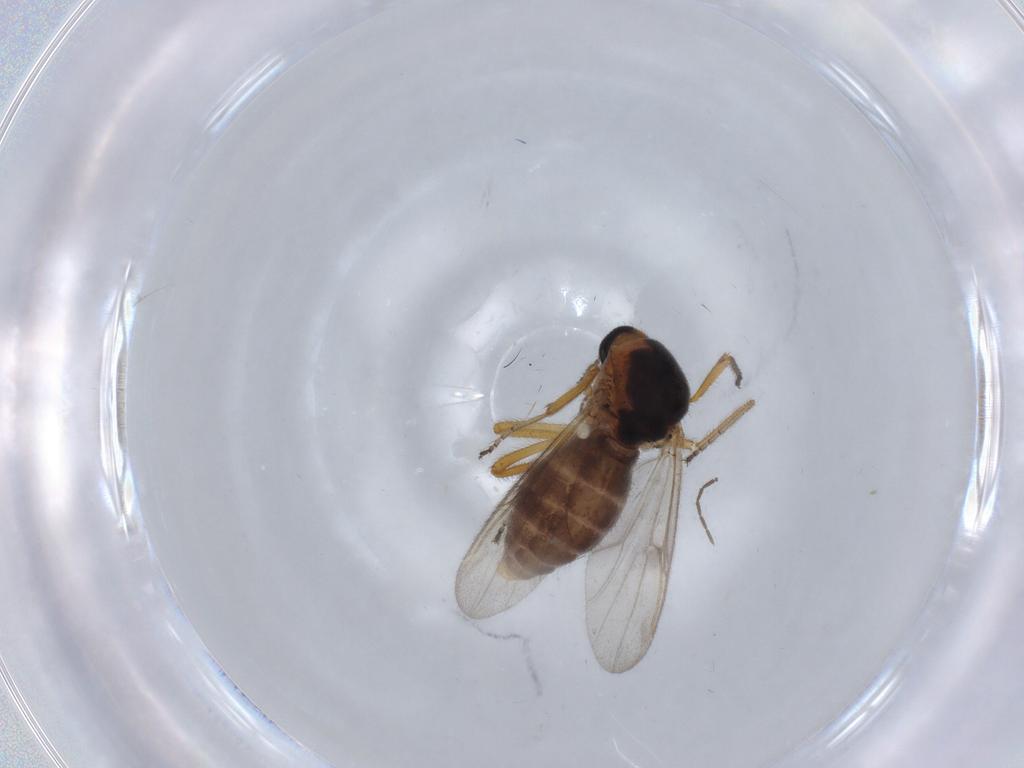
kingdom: Animalia
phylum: Arthropoda
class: Insecta
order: Diptera
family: Ceratopogonidae
